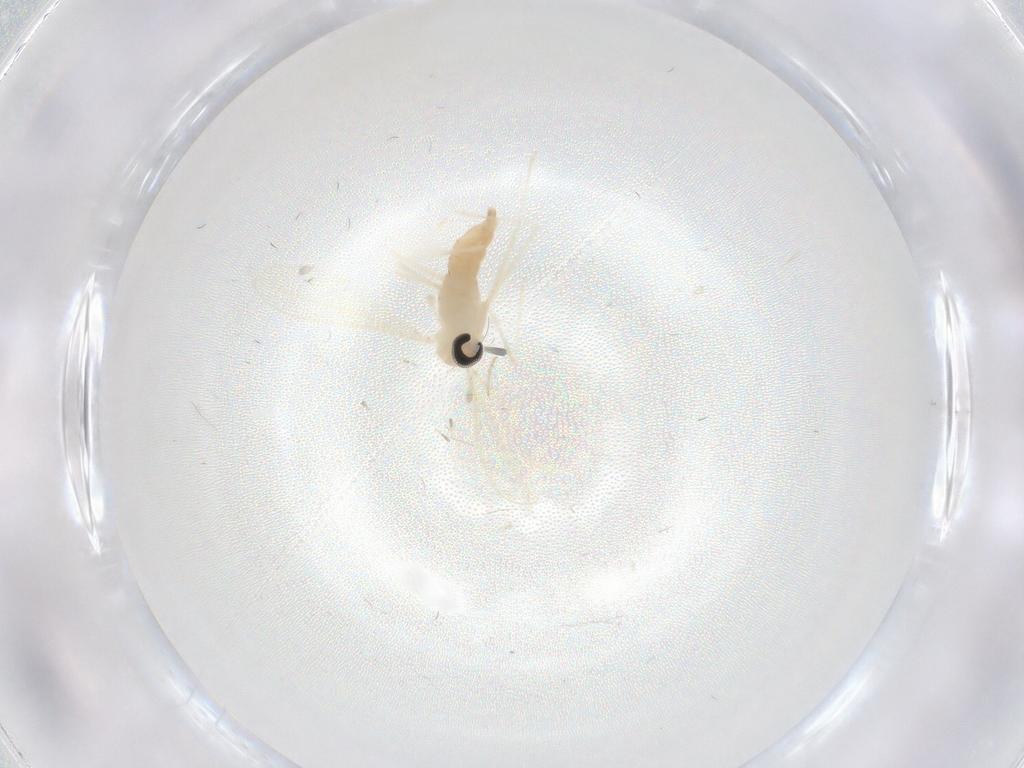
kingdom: Animalia
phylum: Arthropoda
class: Insecta
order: Diptera
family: Cecidomyiidae
